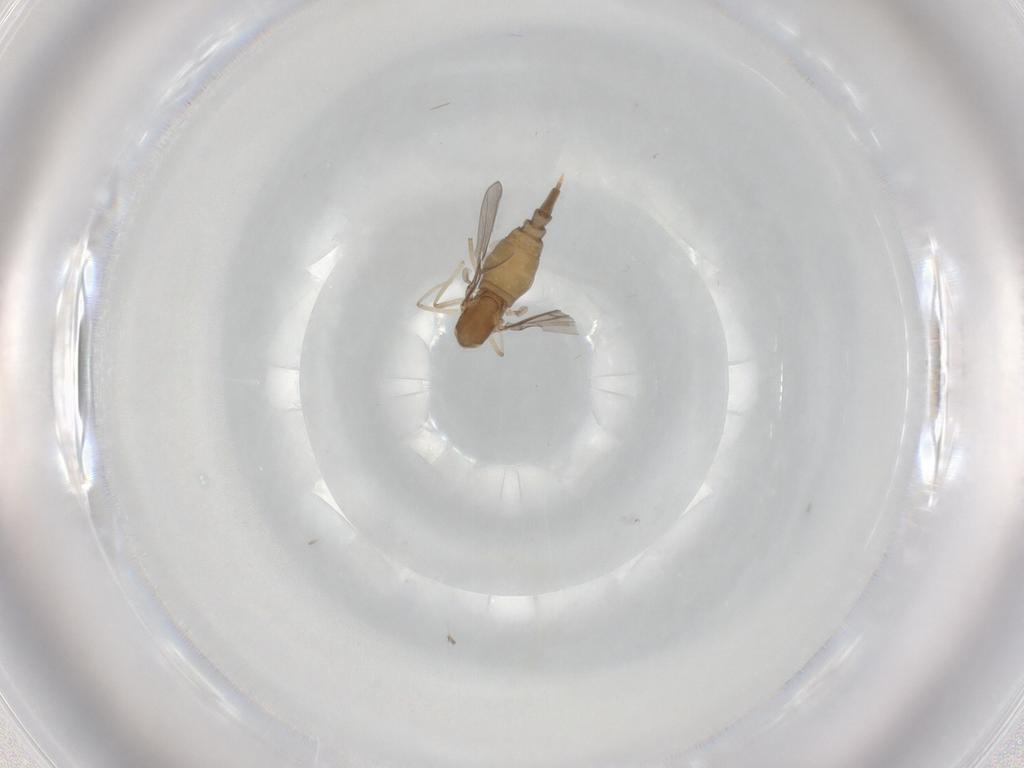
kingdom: Animalia
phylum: Arthropoda
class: Insecta
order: Diptera
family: Cecidomyiidae
